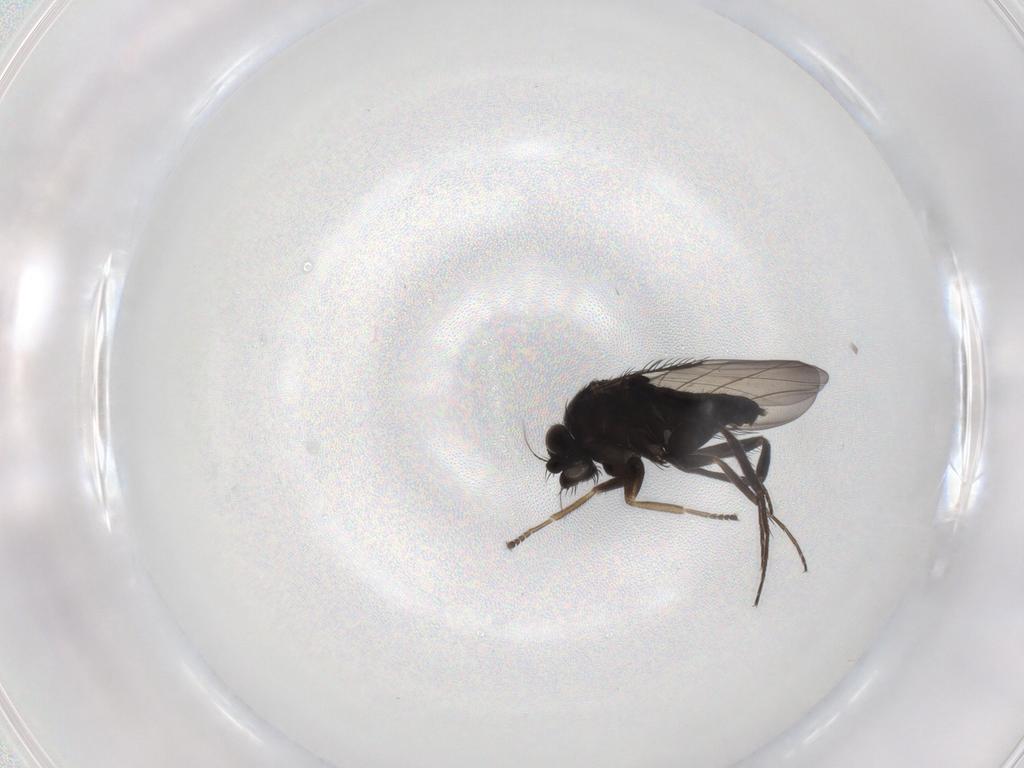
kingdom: Animalia
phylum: Arthropoda
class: Insecta
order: Diptera
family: Phoridae
